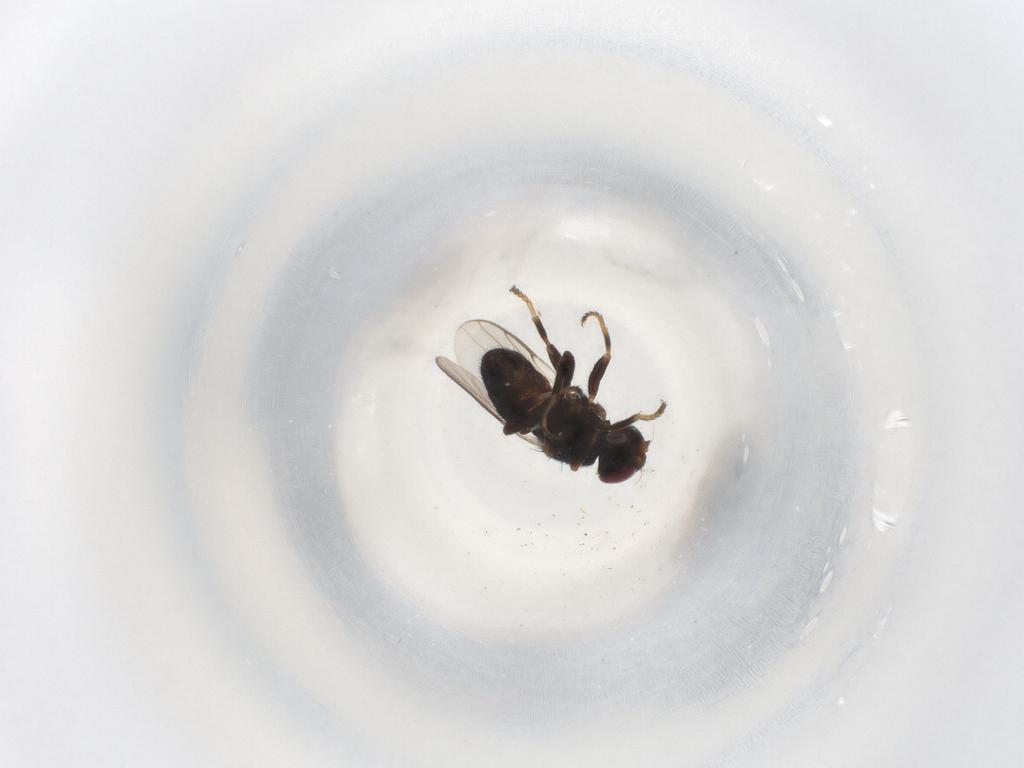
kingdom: Animalia
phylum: Arthropoda
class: Insecta
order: Diptera
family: Chloropidae
